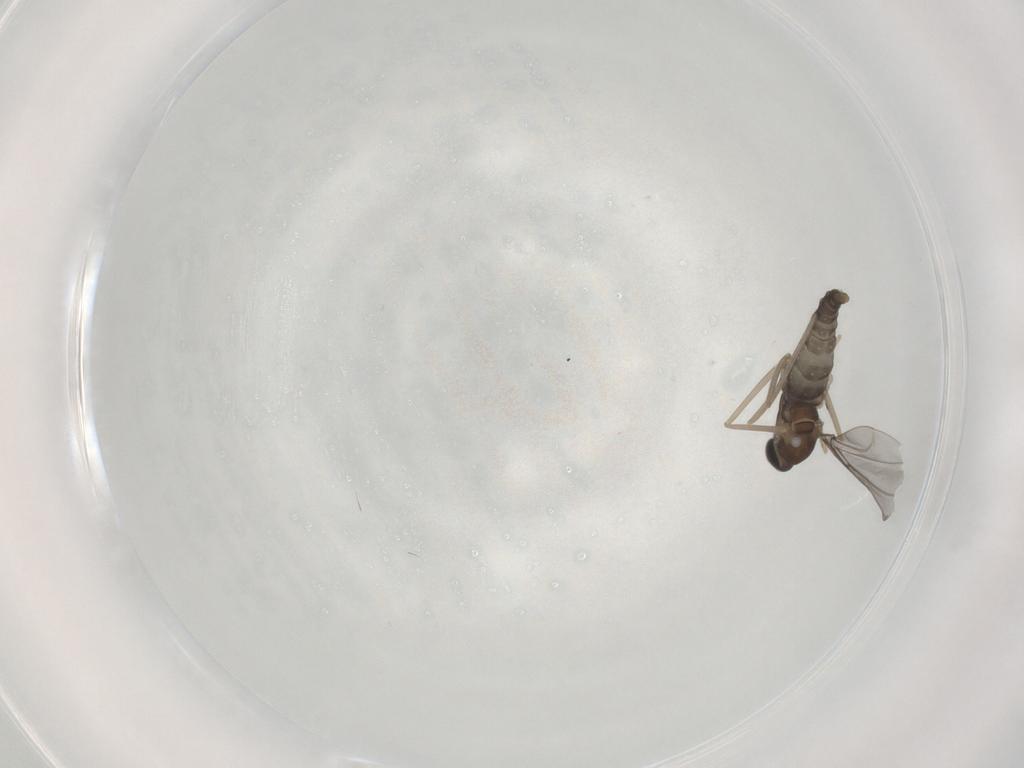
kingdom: Animalia
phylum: Arthropoda
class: Insecta
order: Diptera
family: Cecidomyiidae
